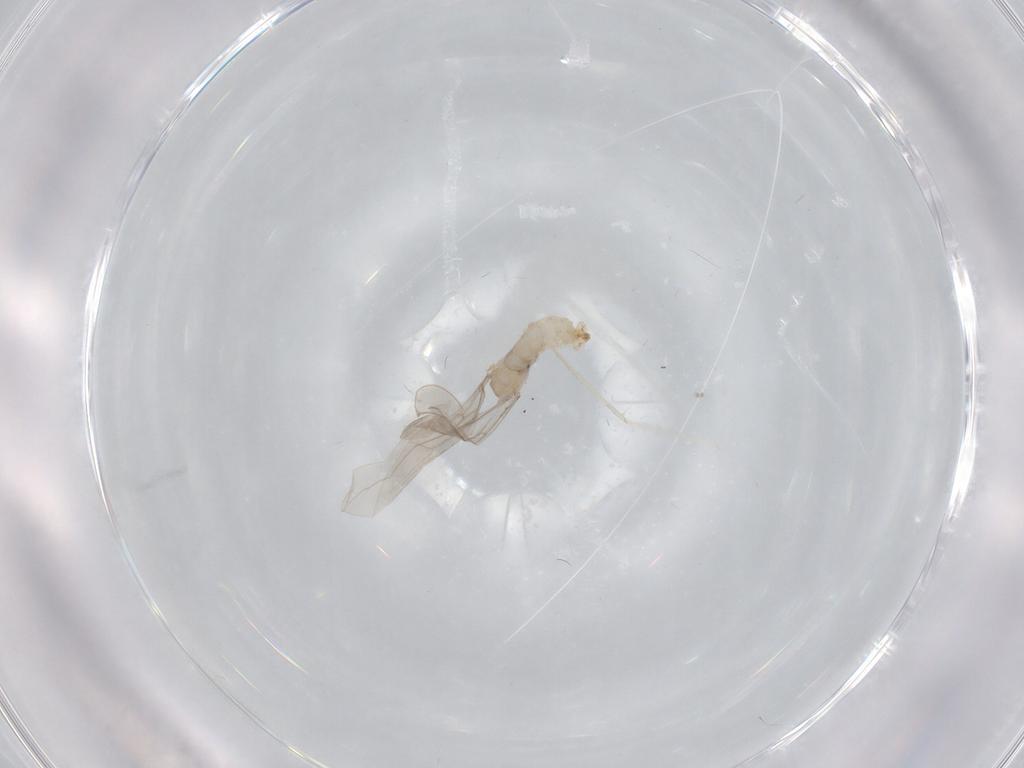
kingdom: Animalia
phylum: Arthropoda
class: Insecta
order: Diptera
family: Cecidomyiidae
